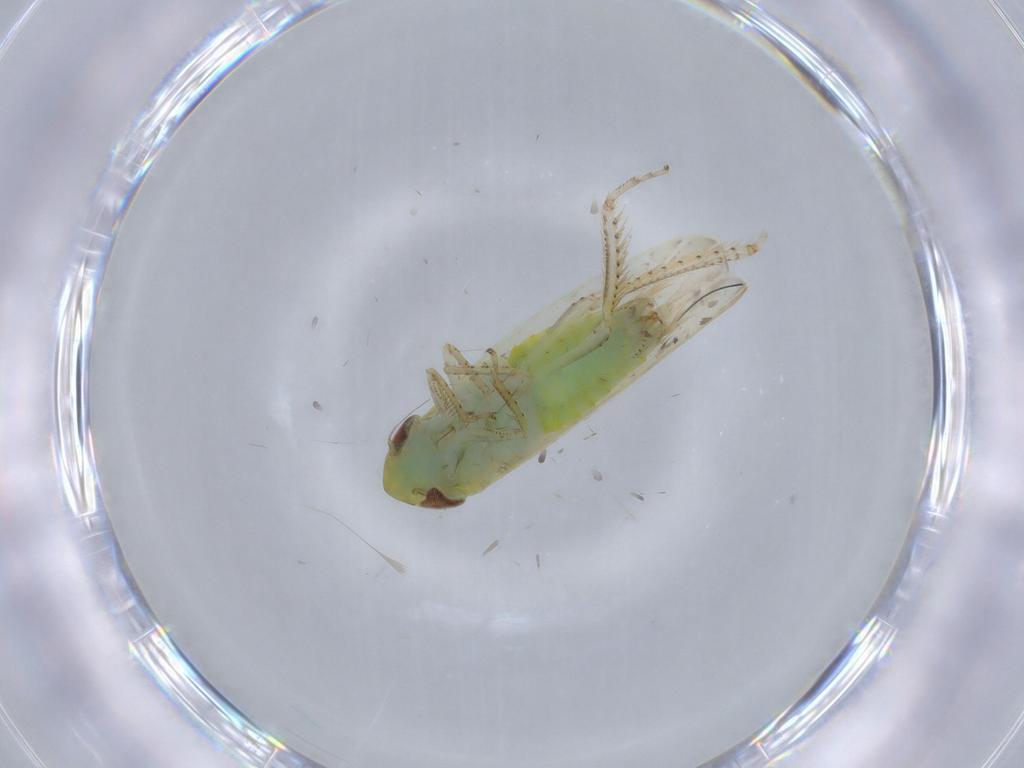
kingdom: Animalia
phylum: Arthropoda
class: Insecta
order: Hemiptera
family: Cicadellidae
